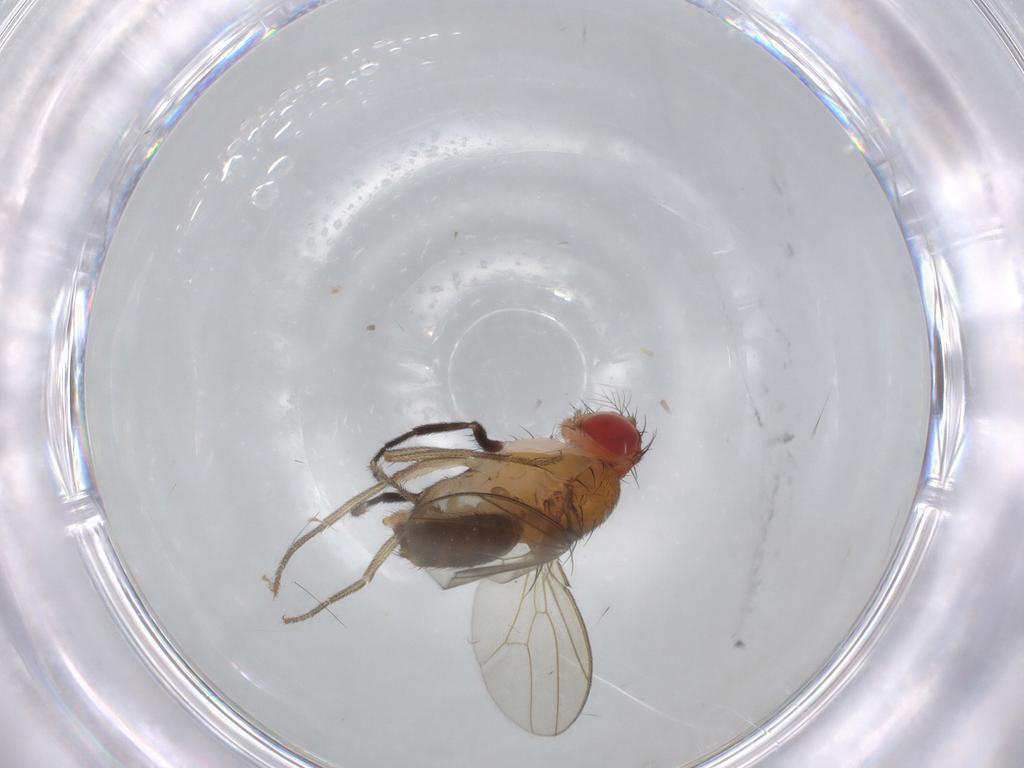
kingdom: Animalia
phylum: Arthropoda
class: Insecta
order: Diptera
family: Drosophilidae
